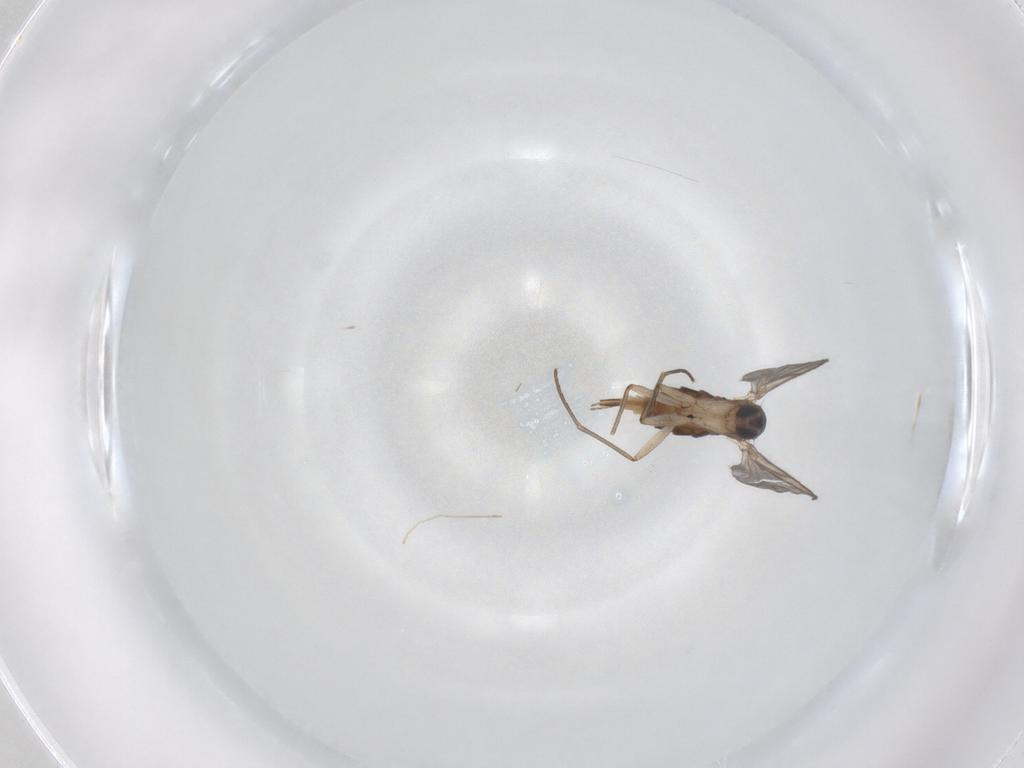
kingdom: Animalia
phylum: Arthropoda
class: Insecta
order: Diptera
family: Sciaridae
